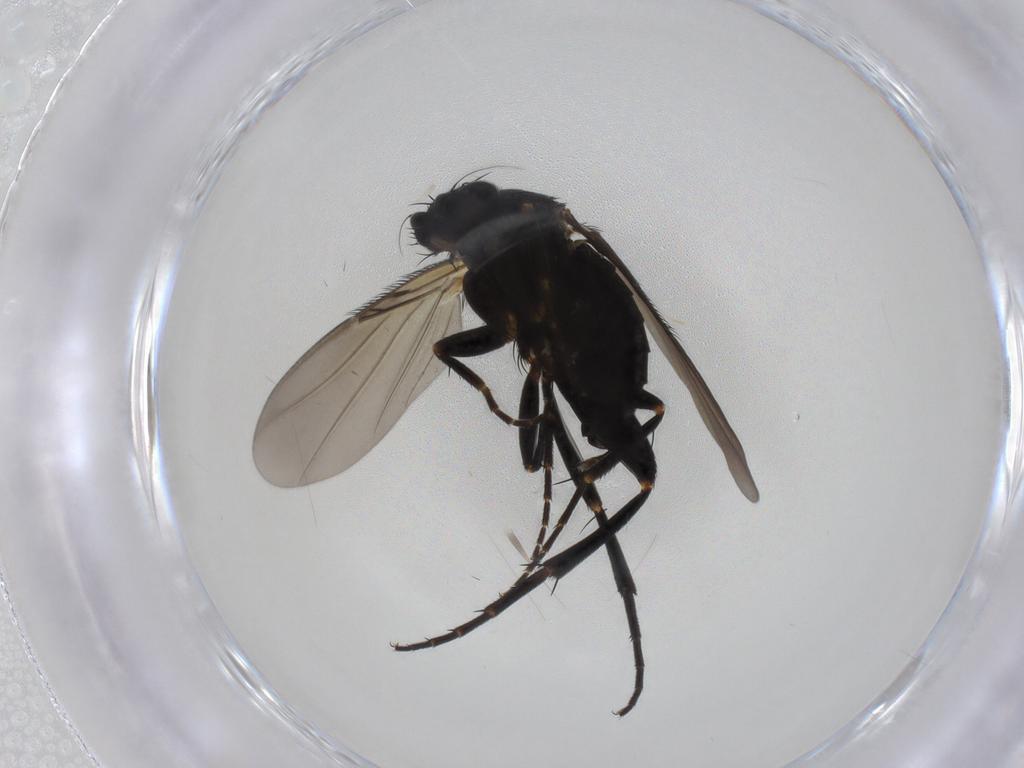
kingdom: Animalia
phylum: Arthropoda
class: Insecta
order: Diptera
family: Phoridae
